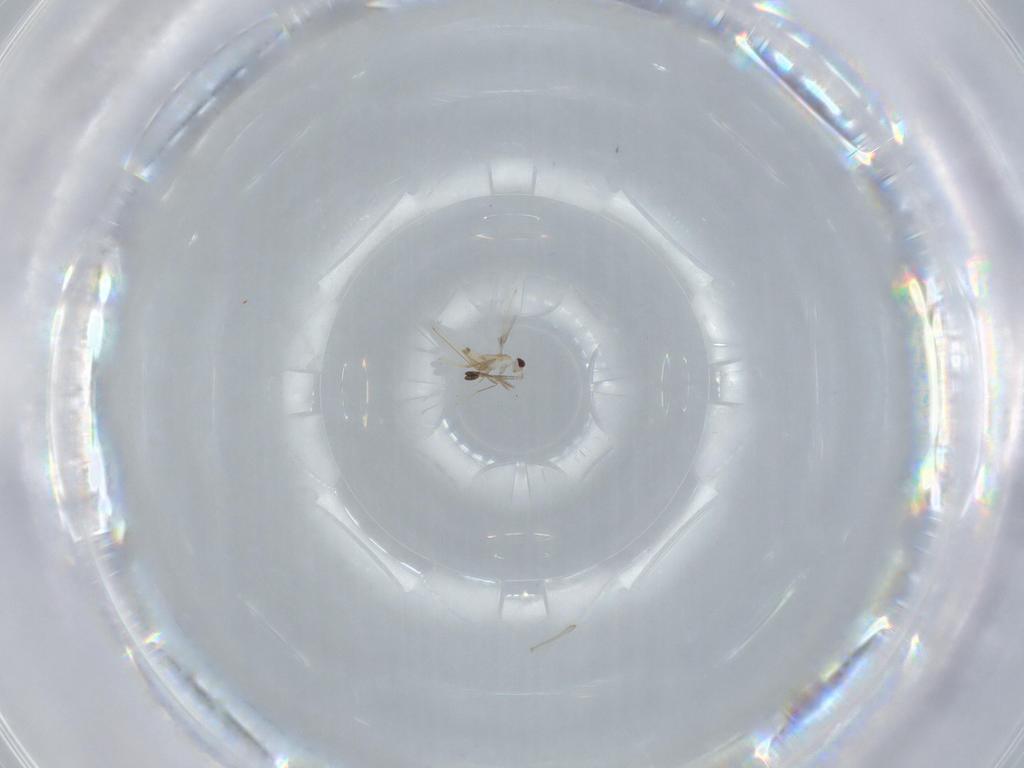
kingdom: Animalia
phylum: Arthropoda
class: Insecta
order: Hymenoptera
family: Mymaridae
